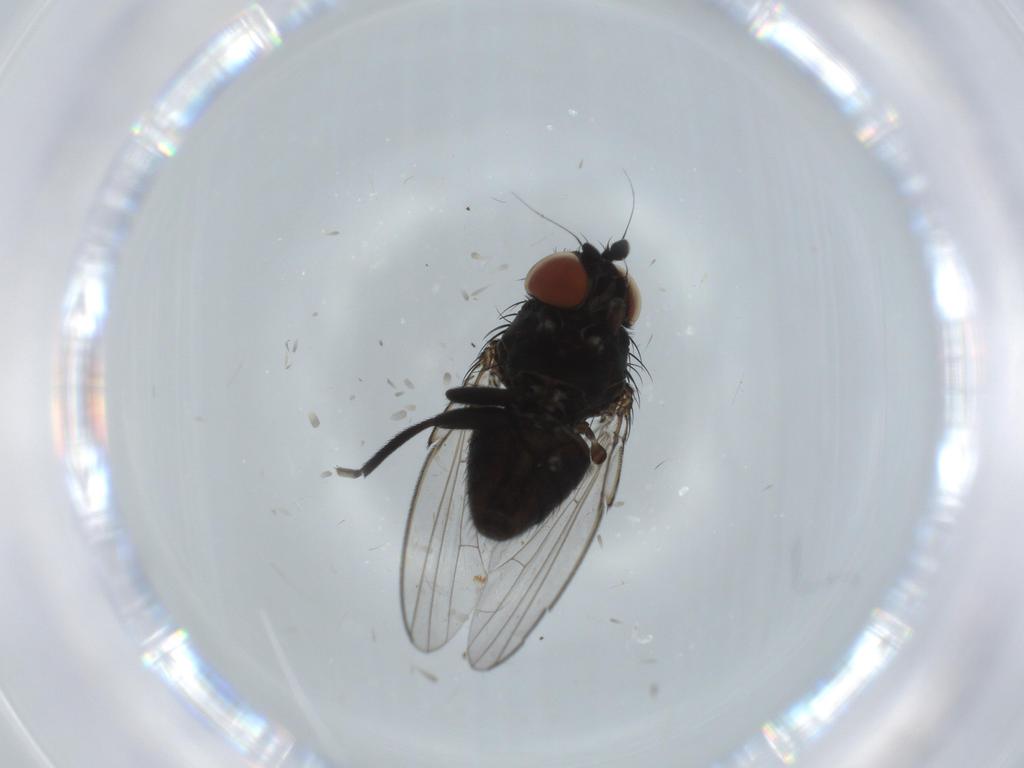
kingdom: Animalia
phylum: Arthropoda
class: Insecta
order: Diptera
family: Milichiidae
